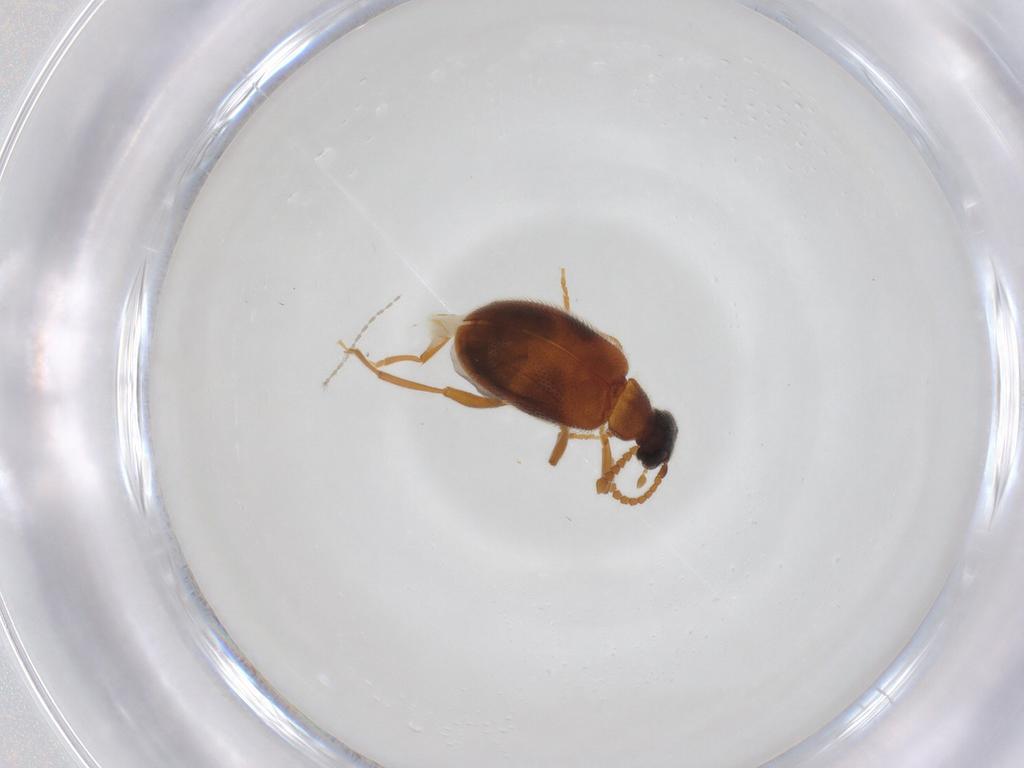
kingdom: Animalia
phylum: Arthropoda
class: Insecta
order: Coleoptera
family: Aderidae
